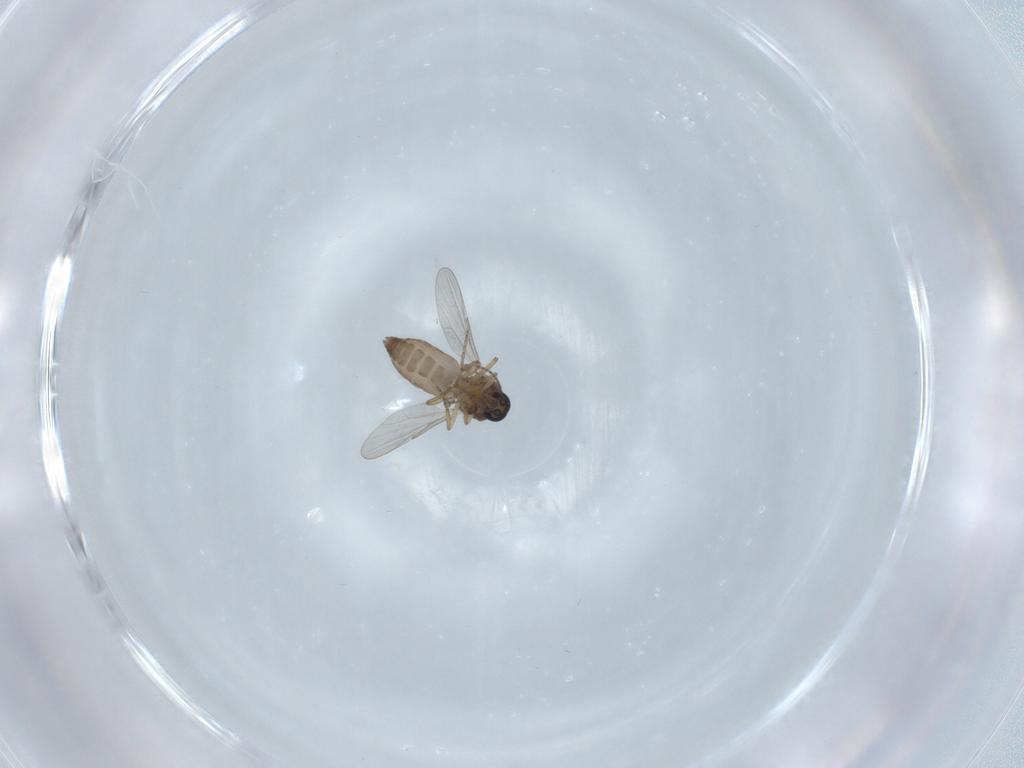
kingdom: Animalia
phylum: Arthropoda
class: Insecta
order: Diptera
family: Ceratopogonidae
